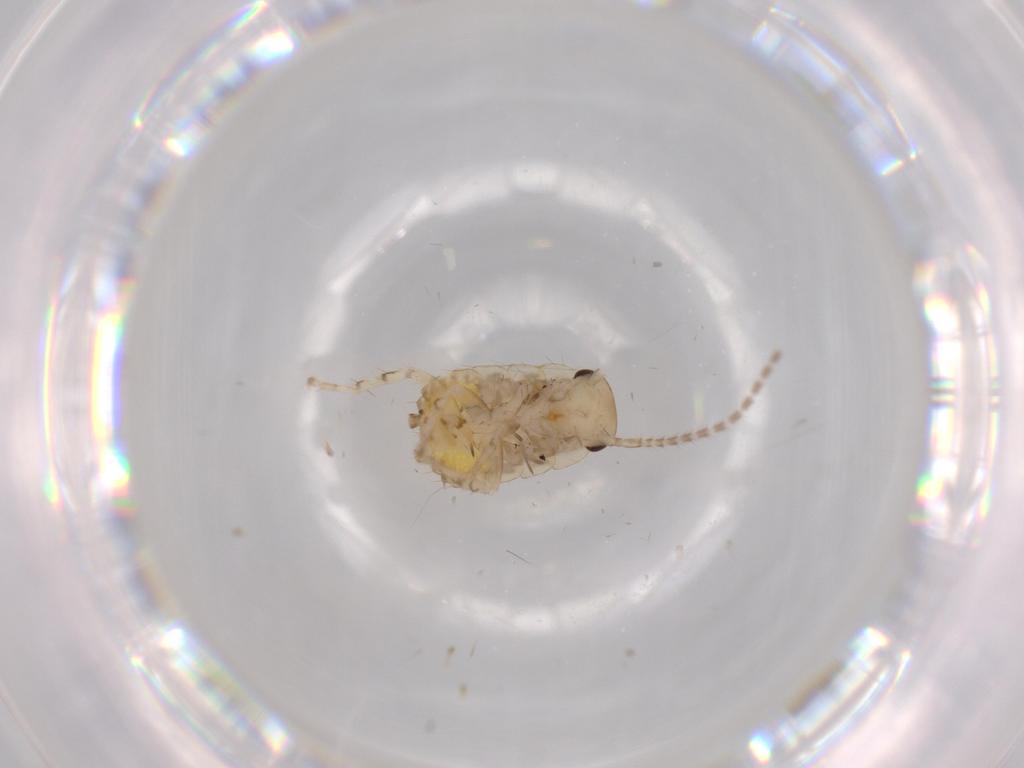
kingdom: Animalia
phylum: Arthropoda
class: Insecta
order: Blattodea
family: Ectobiidae
